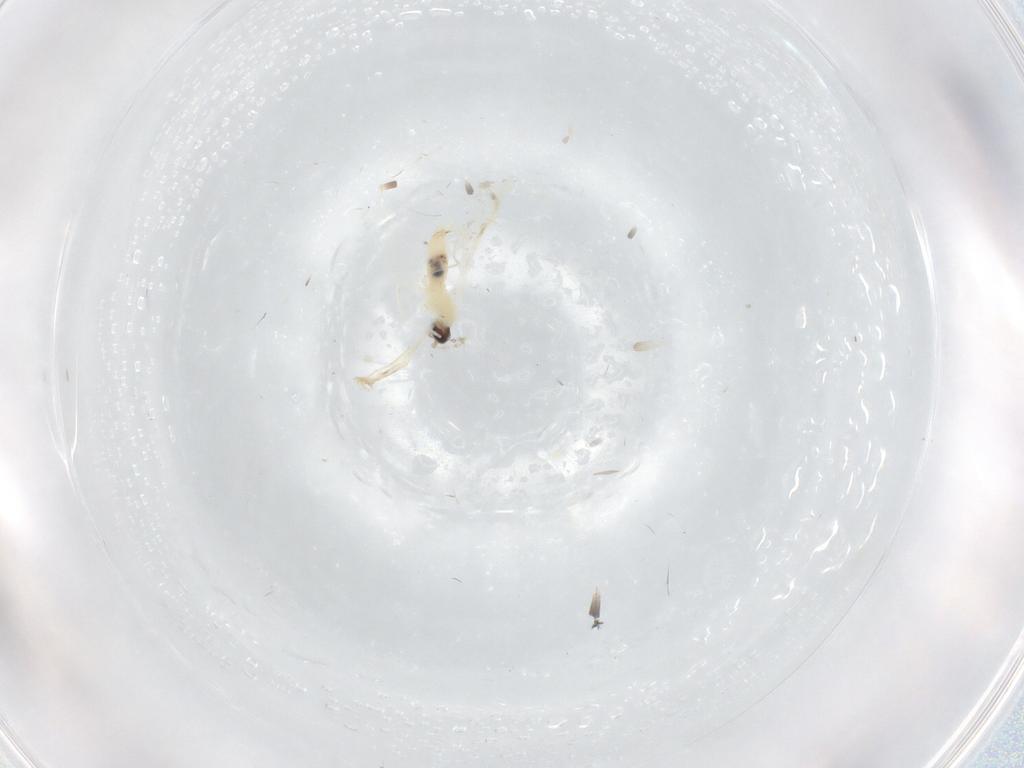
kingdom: Animalia
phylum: Arthropoda
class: Insecta
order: Diptera
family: Cecidomyiidae
